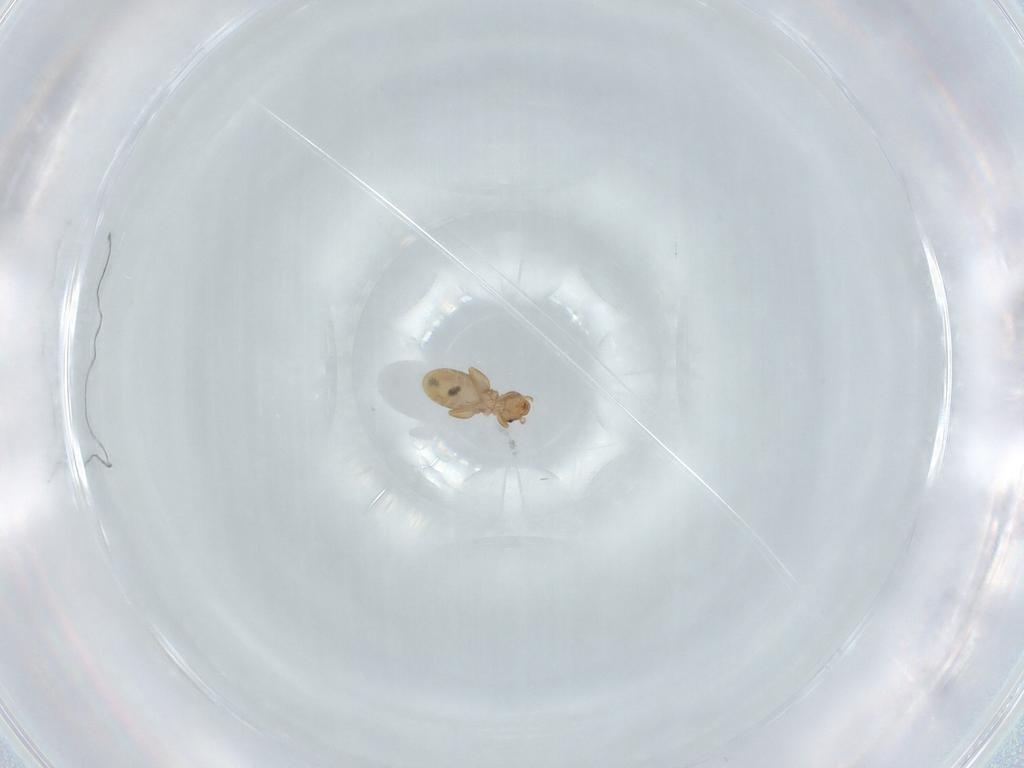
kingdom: Animalia
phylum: Arthropoda
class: Insecta
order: Psocodea
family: Liposcelididae
